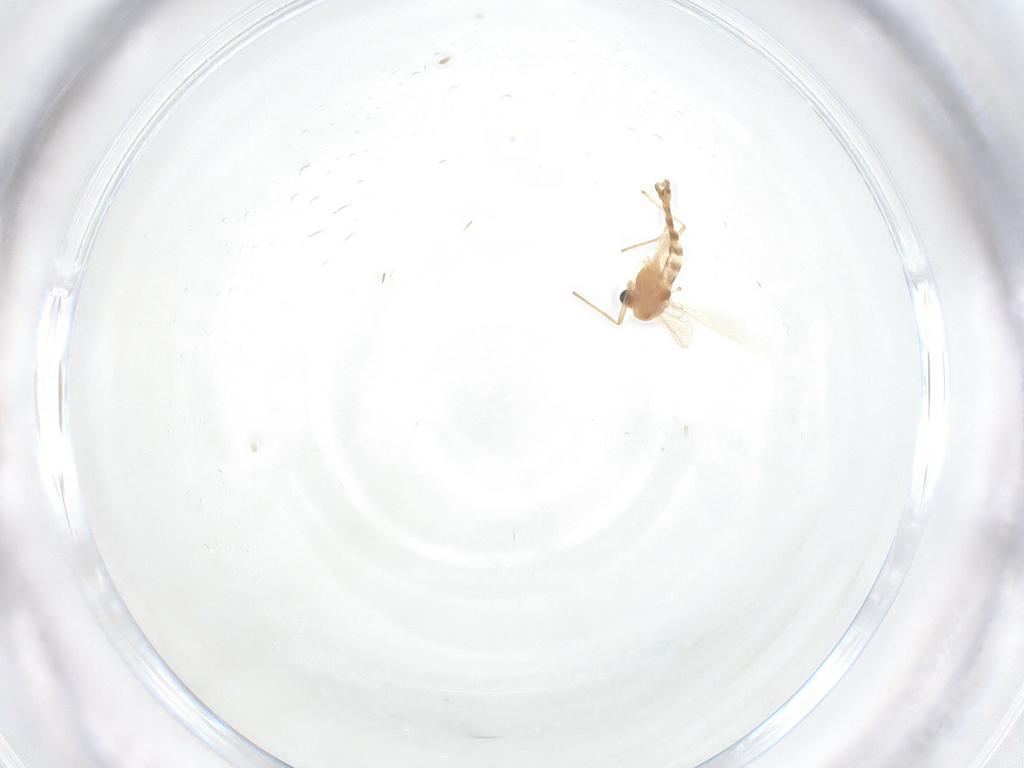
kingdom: Animalia
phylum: Arthropoda
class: Insecta
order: Diptera
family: Chironomidae
